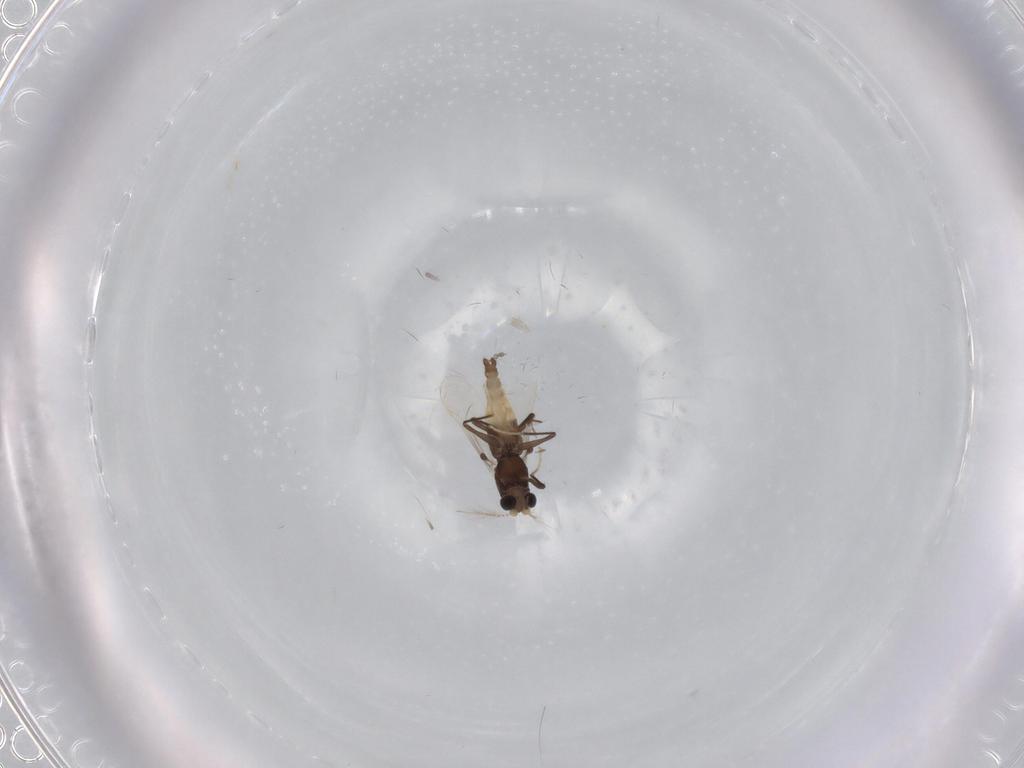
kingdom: Animalia
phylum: Arthropoda
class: Insecta
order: Diptera
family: Chironomidae
